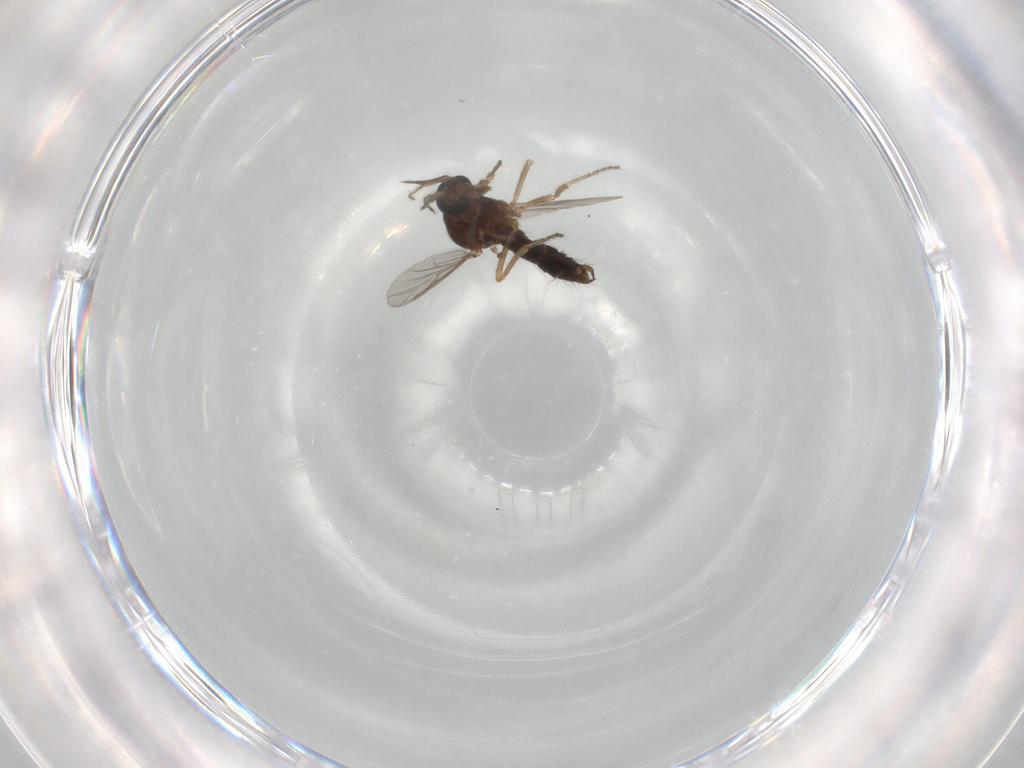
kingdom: Animalia
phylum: Arthropoda
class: Insecta
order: Diptera
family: Ceratopogonidae
